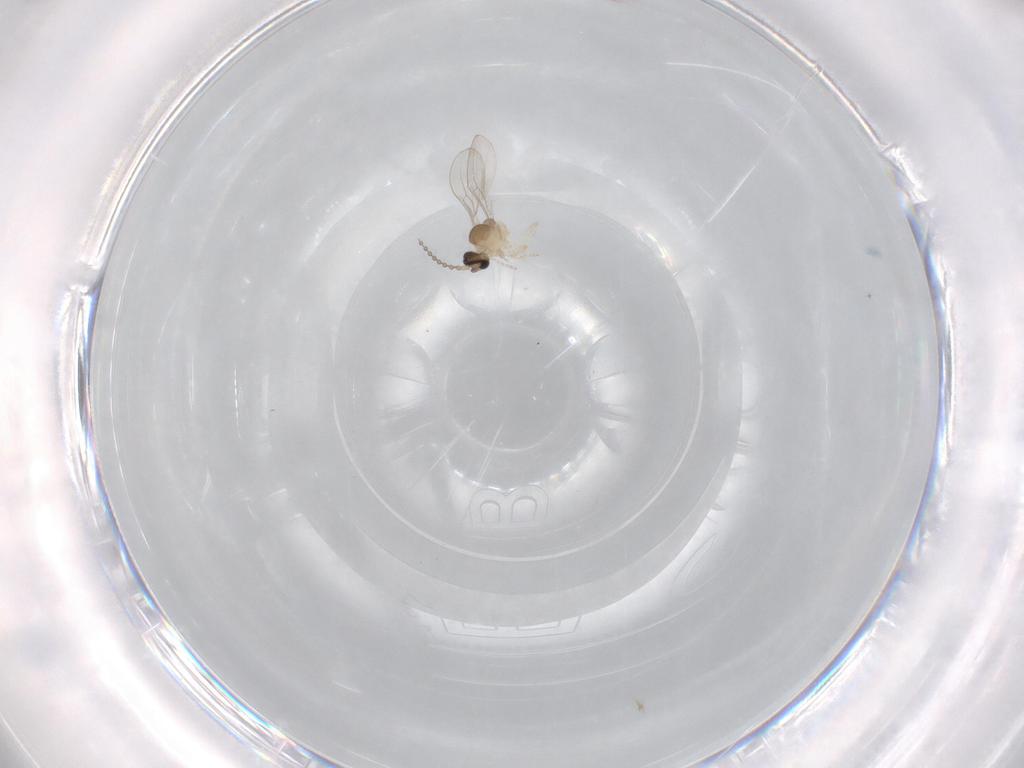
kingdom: Animalia
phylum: Arthropoda
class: Insecta
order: Diptera
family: Cecidomyiidae
